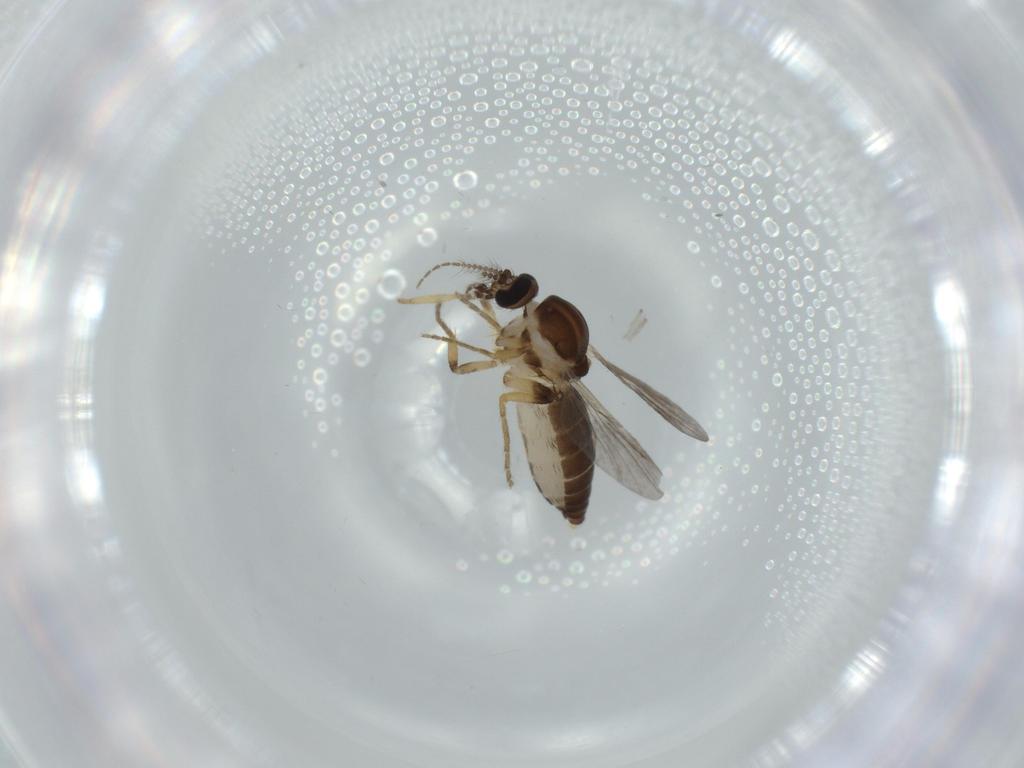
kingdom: Animalia
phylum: Arthropoda
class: Insecta
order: Diptera
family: Ceratopogonidae
